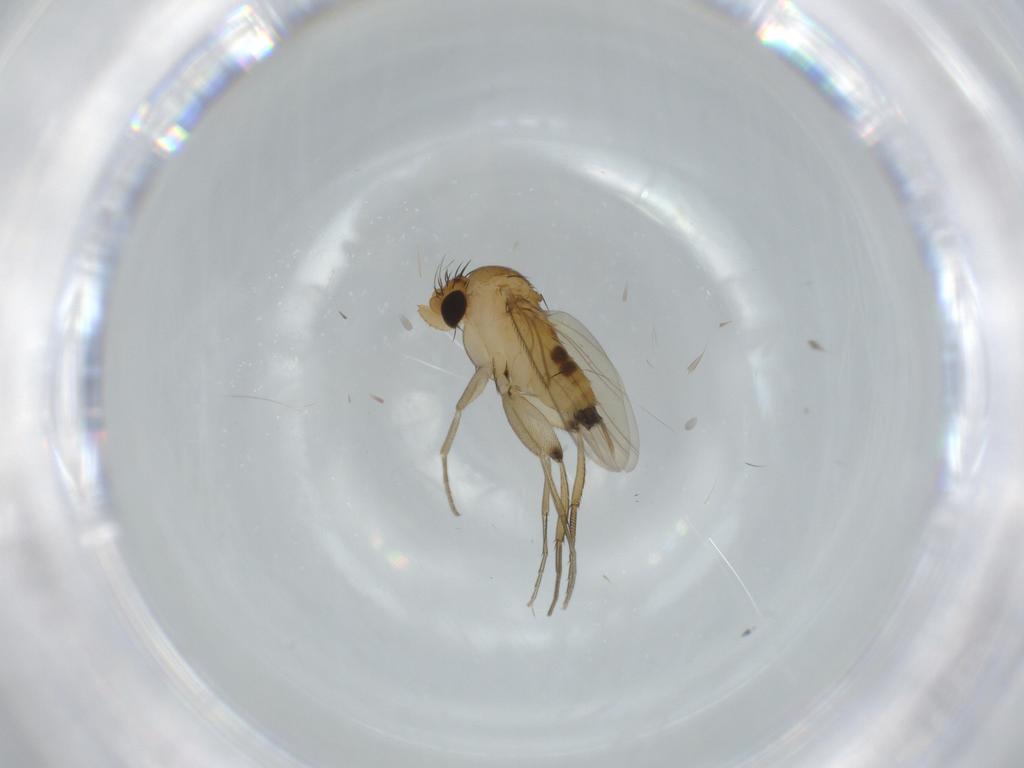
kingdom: Animalia
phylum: Arthropoda
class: Insecta
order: Diptera
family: Phoridae
